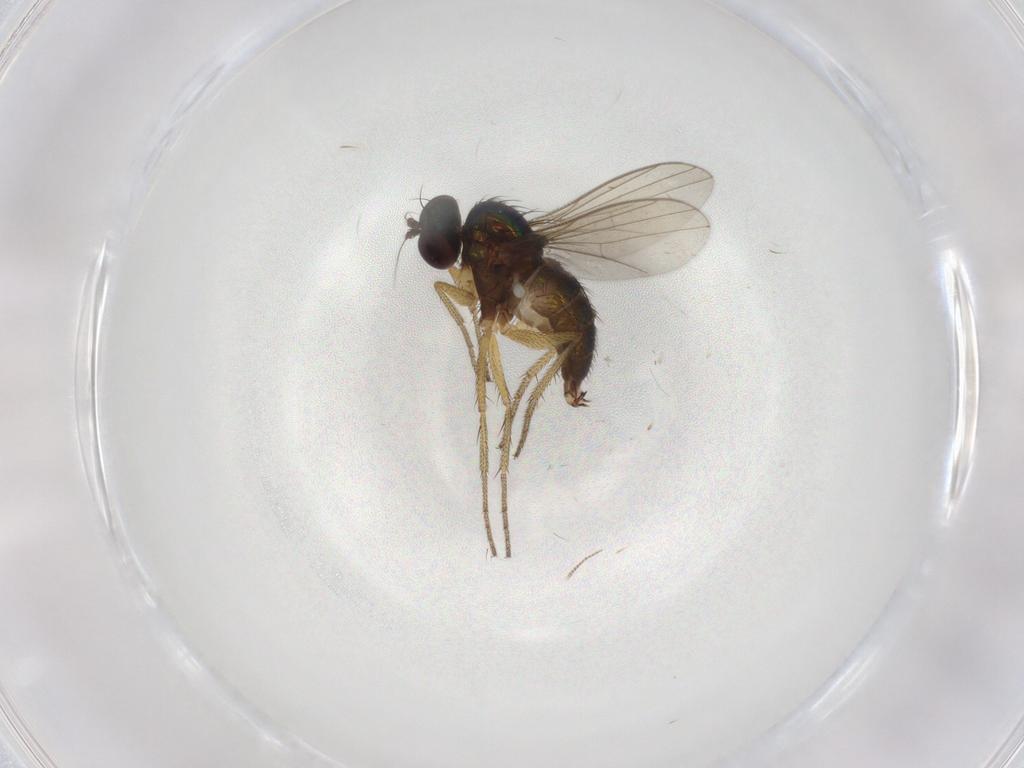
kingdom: Animalia
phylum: Arthropoda
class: Insecta
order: Diptera
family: Dolichopodidae
